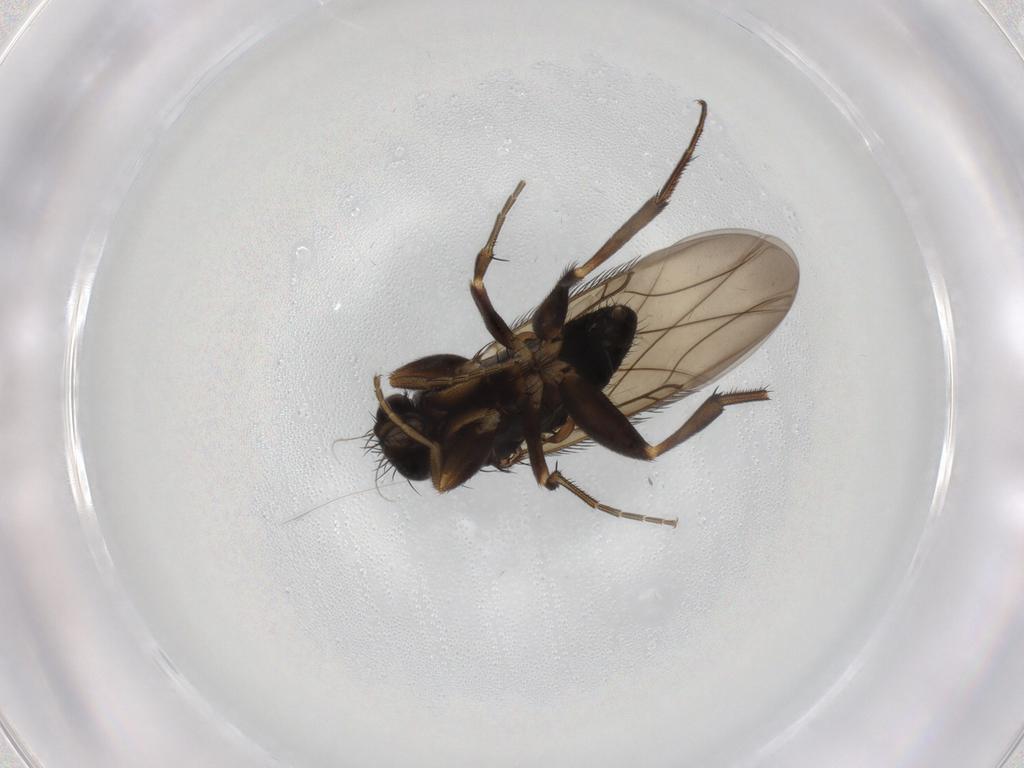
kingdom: Animalia
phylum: Arthropoda
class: Insecta
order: Diptera
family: Phoridae
